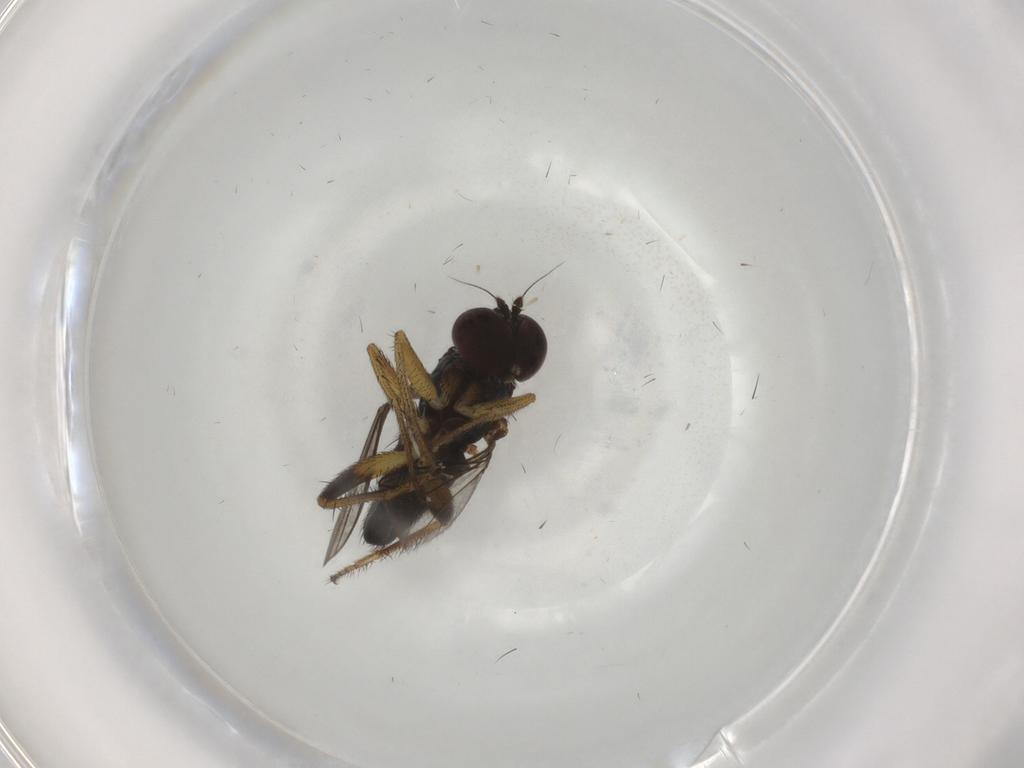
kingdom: Animalia
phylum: Arthropoda
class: Insecta
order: Diptera
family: Dolichopodidae
